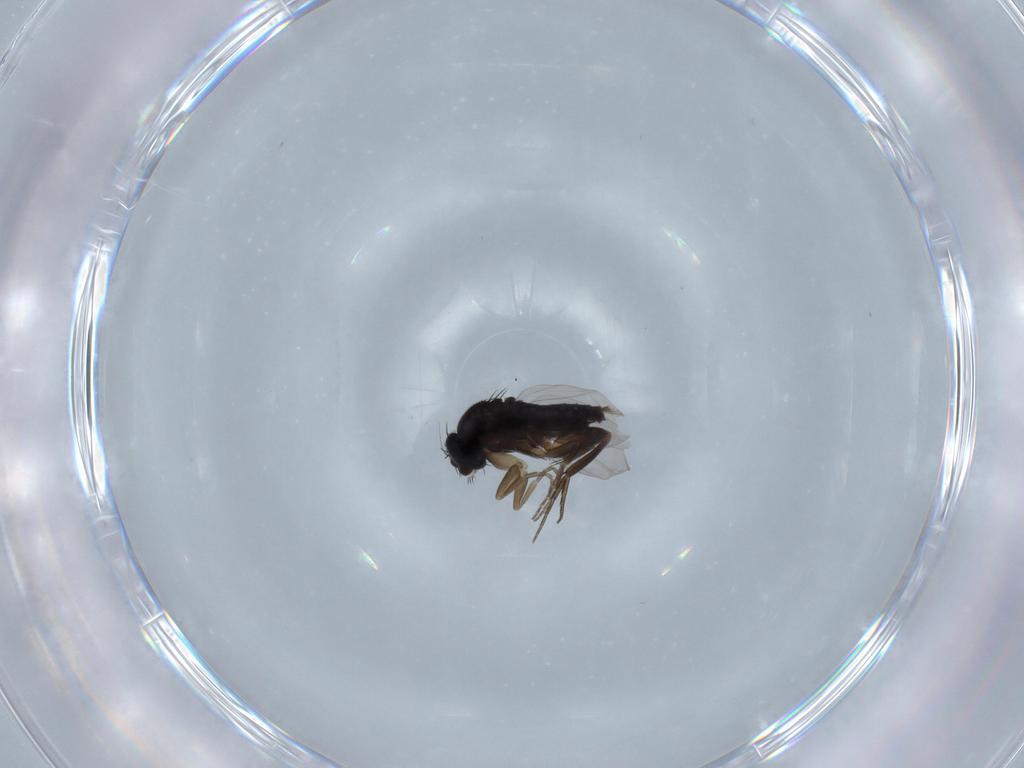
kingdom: Animalia
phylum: Arthropoda
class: Insecta
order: Diptera
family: Phoridae
